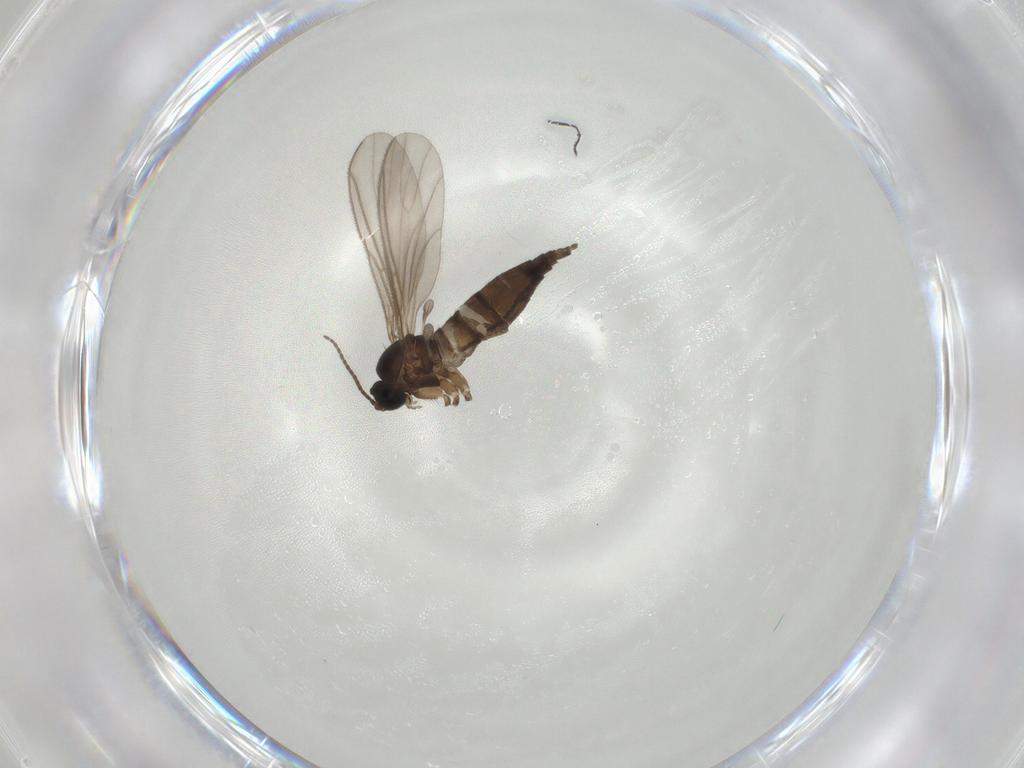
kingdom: Animalia
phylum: Arthropoda
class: Insecta
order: Diptera
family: Sciaridae
